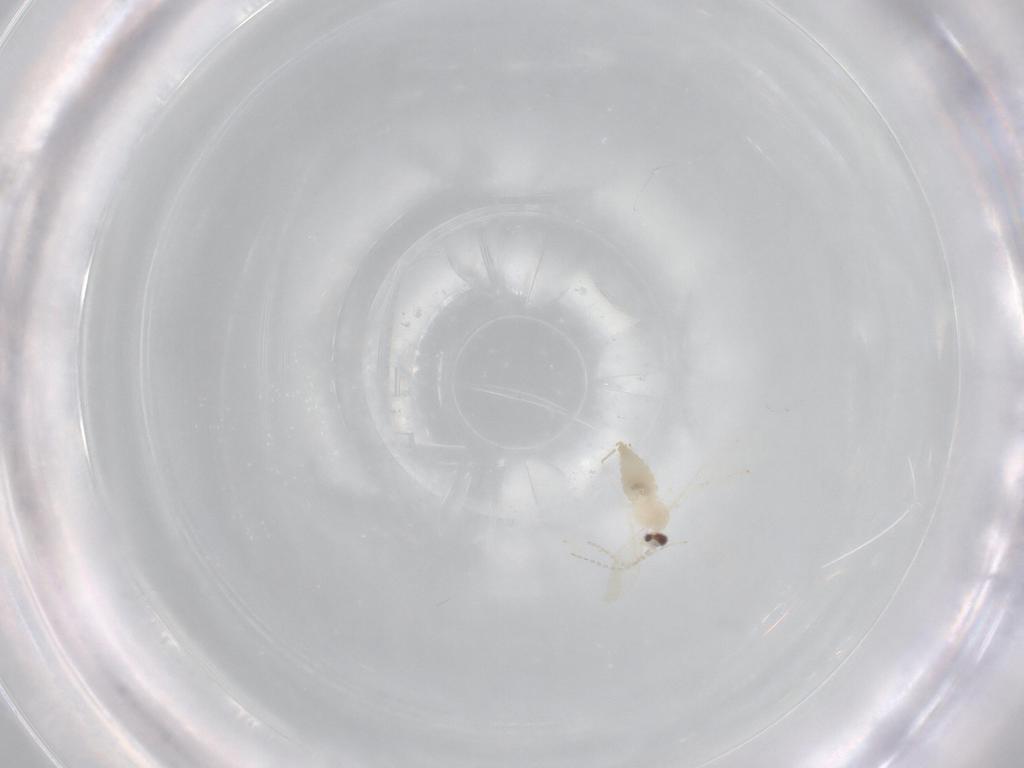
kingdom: Animalia
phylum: Arthropoda
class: Insecta
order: Diptera
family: Cecidomyiidae
